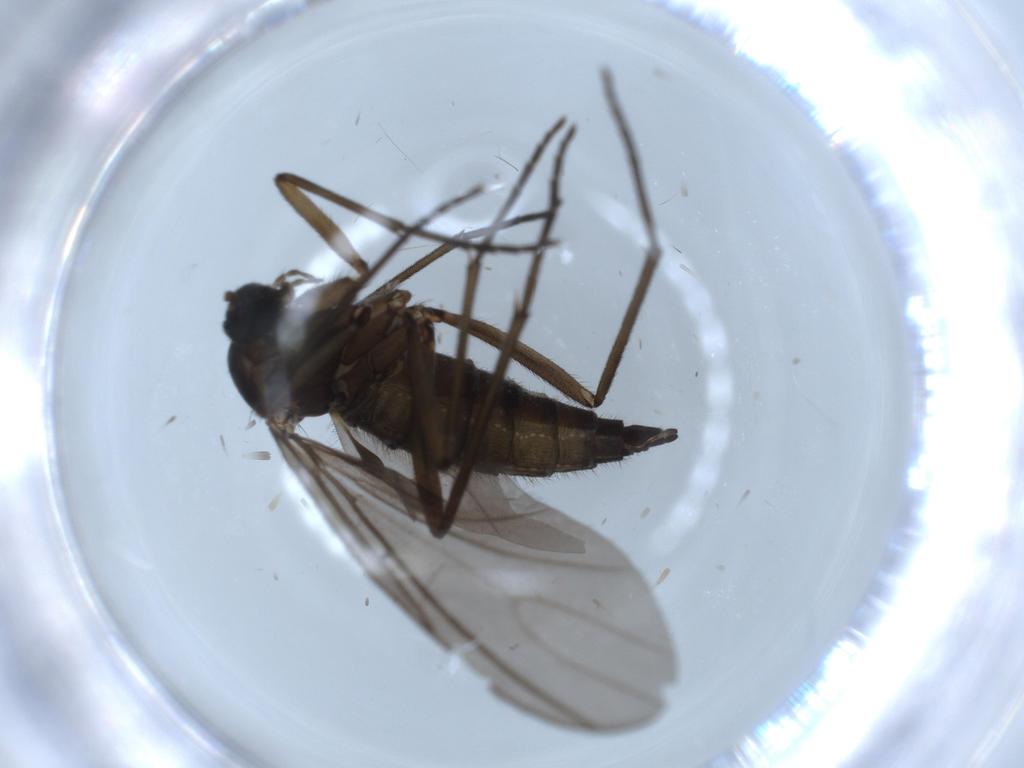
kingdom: Animalia
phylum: Arthropoda
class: Insecta
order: Diptera
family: Sciaridae
